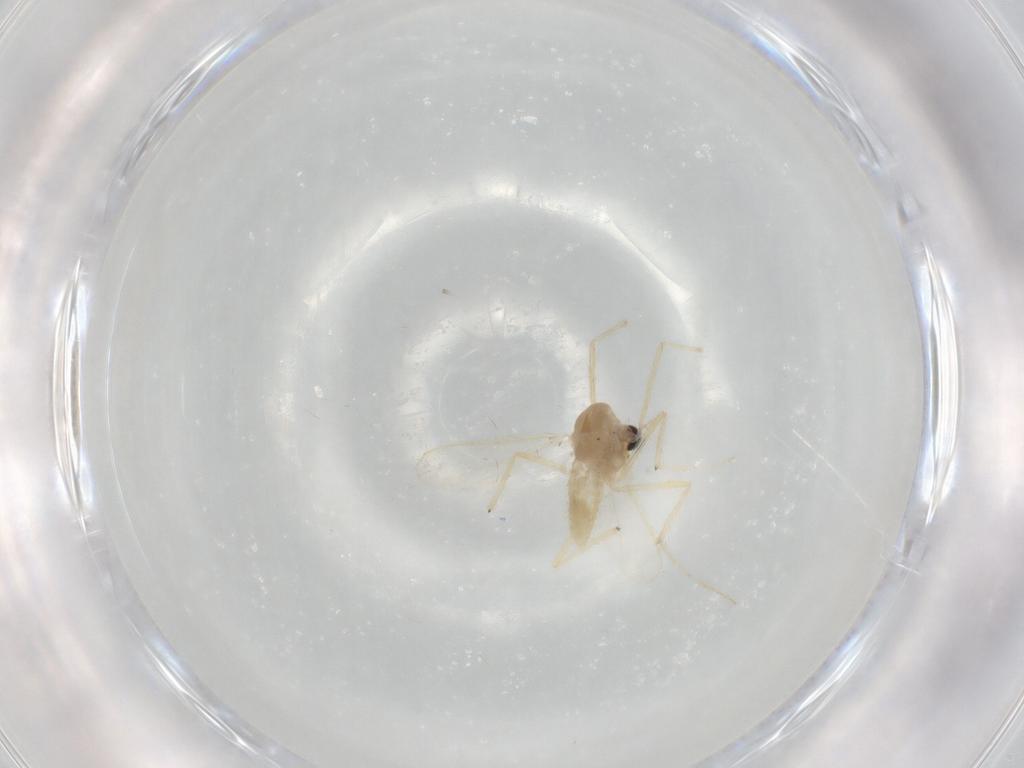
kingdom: Animalia
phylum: Arthropoda
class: Insecta
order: Diptera
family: Chironomidae
